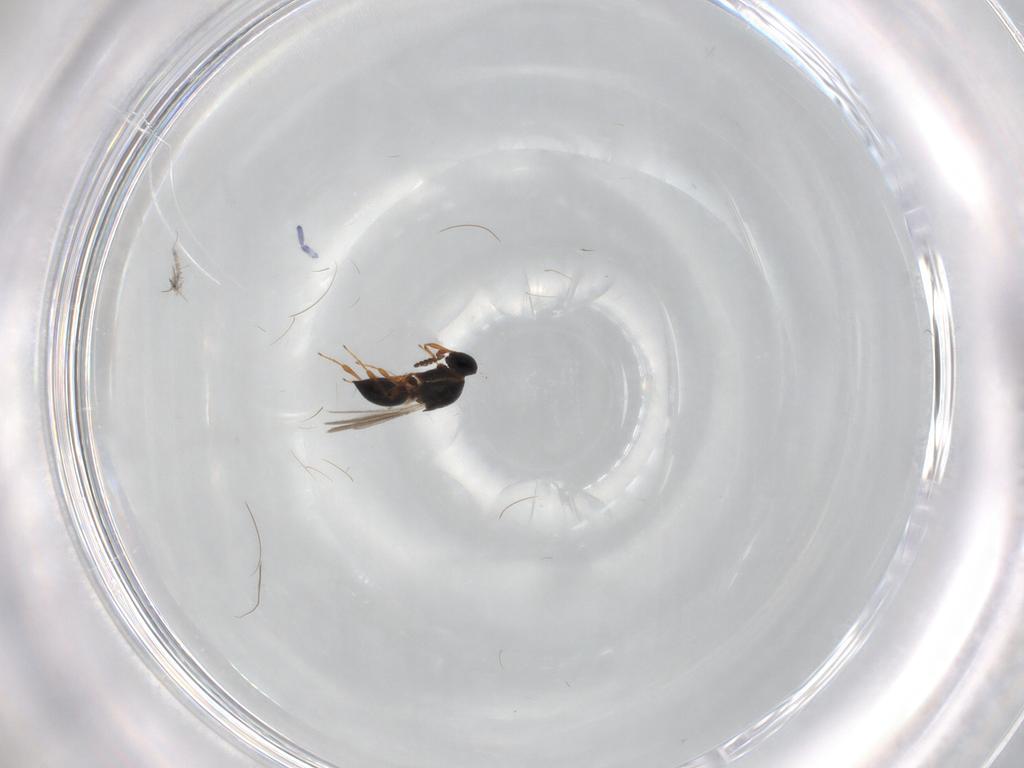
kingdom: Animalia
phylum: Arthropoda
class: Insecta
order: Hymenoptera
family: Platygastridae
